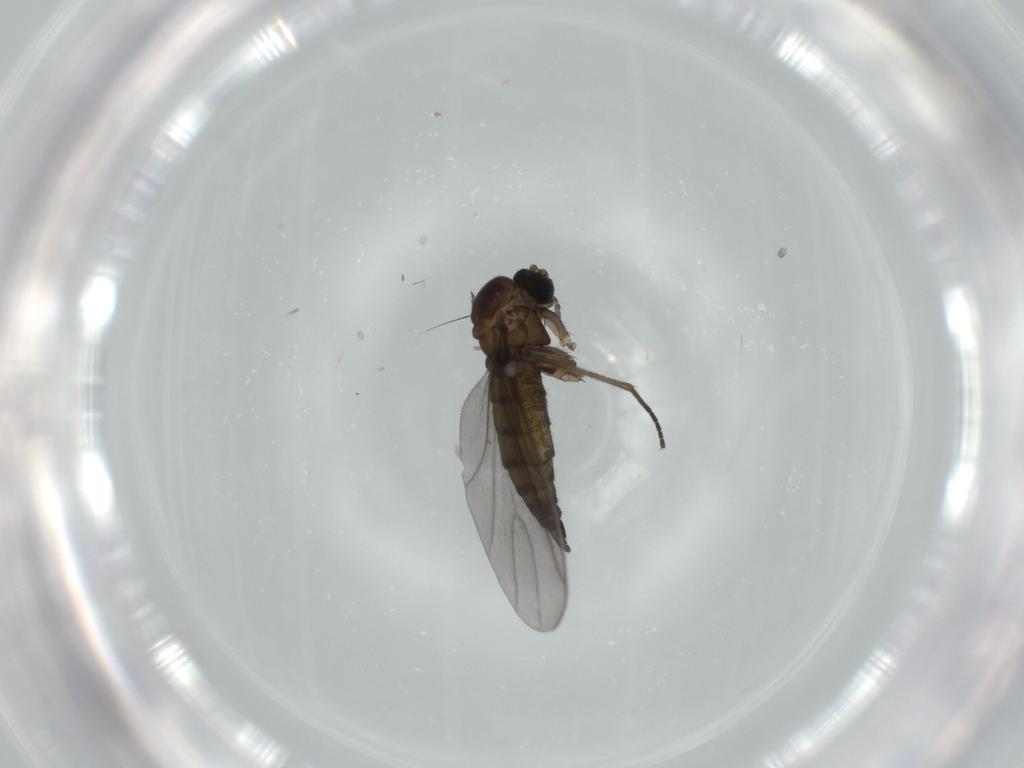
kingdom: Animalia
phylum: Arthropoda
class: Insecta
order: Diptera
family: Sciaridae
